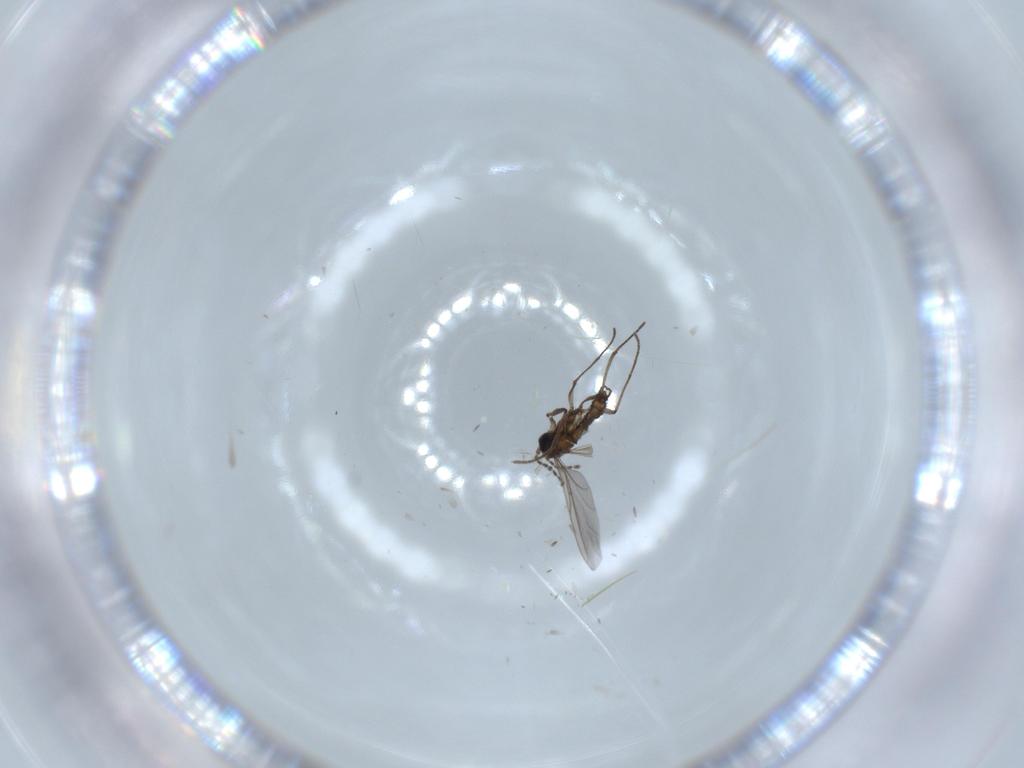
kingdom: Animalia
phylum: Arthropoda
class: Insecta
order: Diptera
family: Sciaridae
